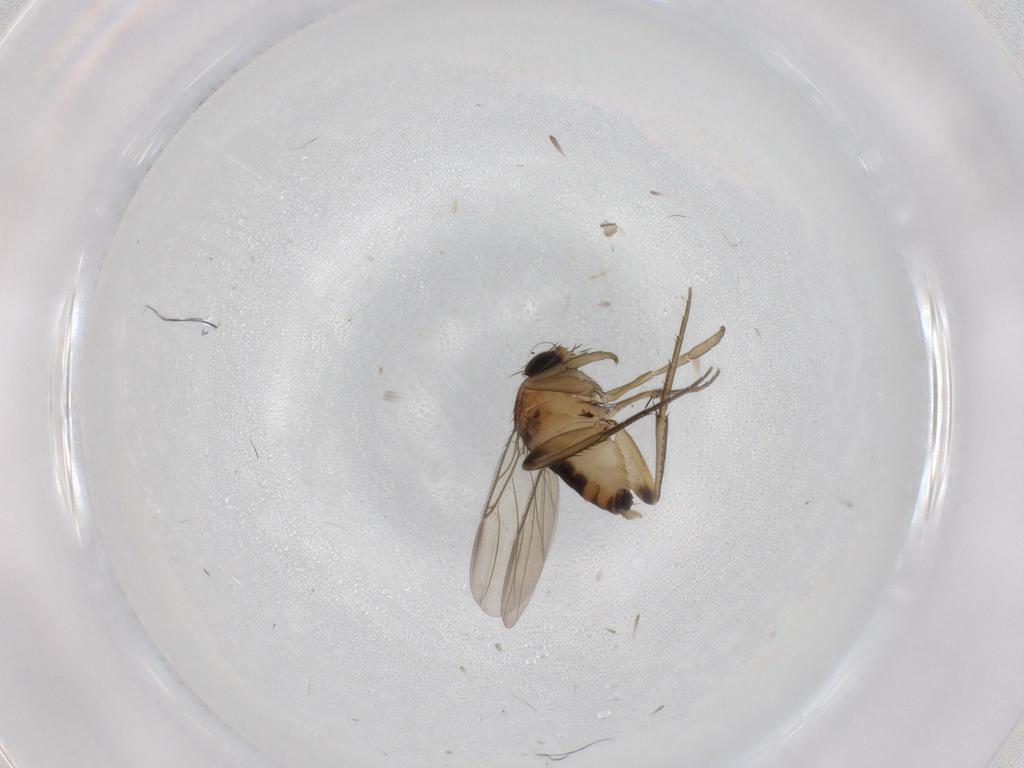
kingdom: Animalia
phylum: Arthropoda
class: Insecta
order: Diptera
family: Phoridae
